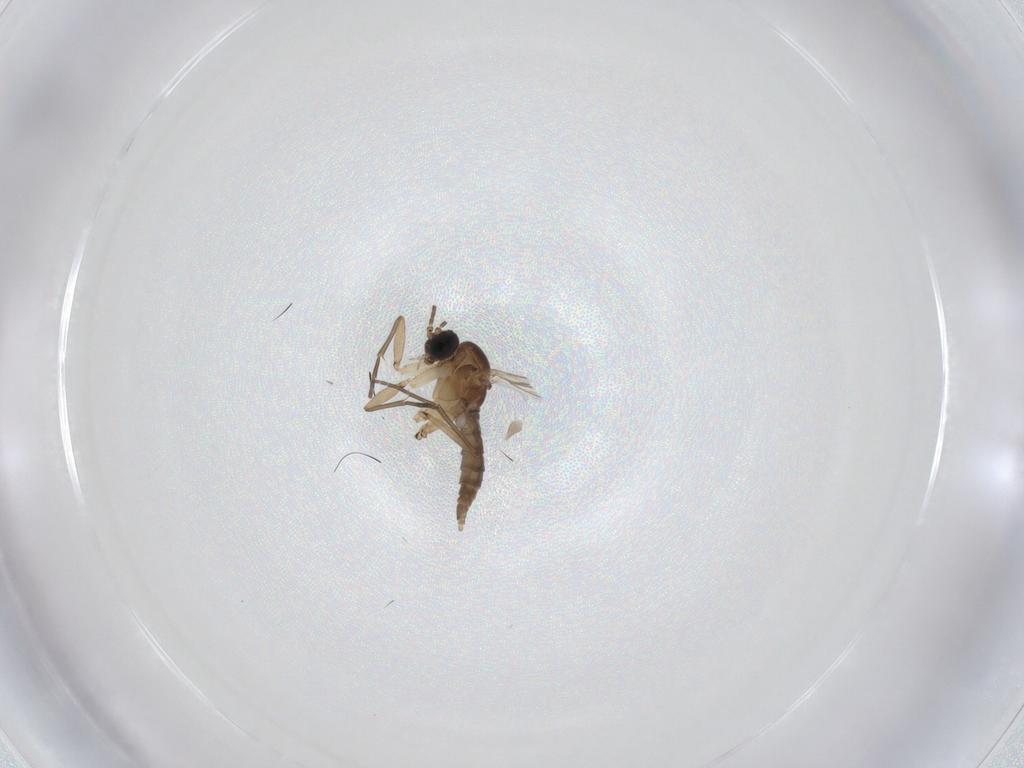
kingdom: Animalia
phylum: Arthropoda
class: Insecta
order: Diptera
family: Sciaridae
